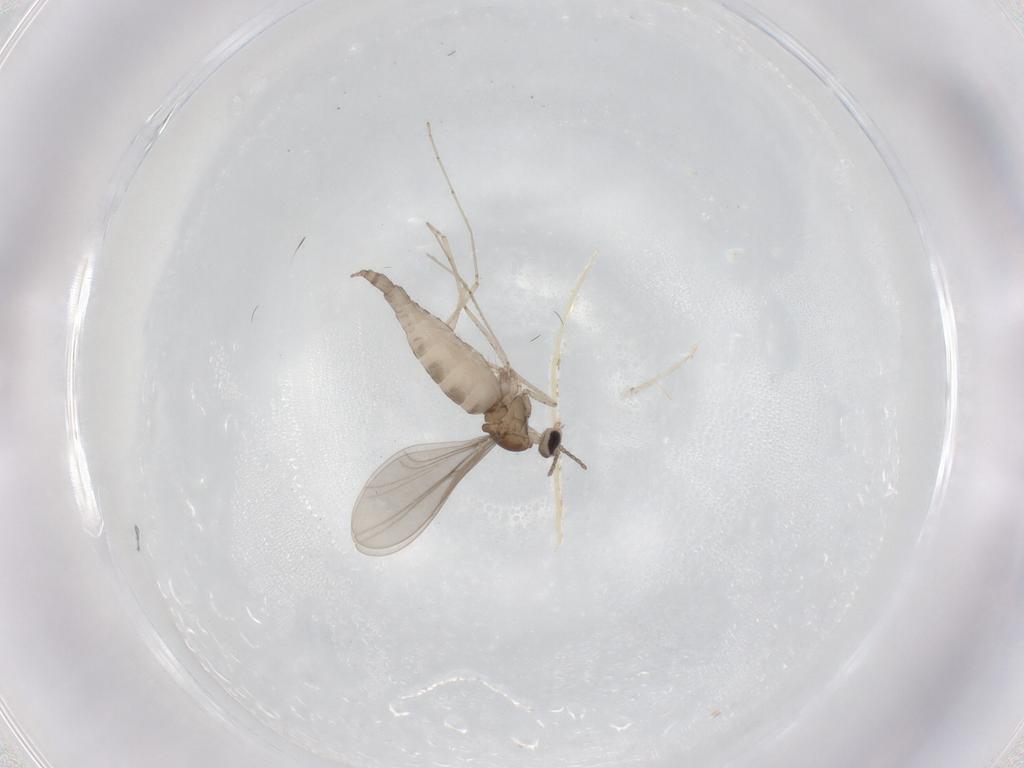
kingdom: Animalia
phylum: Arthropoda
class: Insecta
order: Diptera
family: Cecidomyiidae
